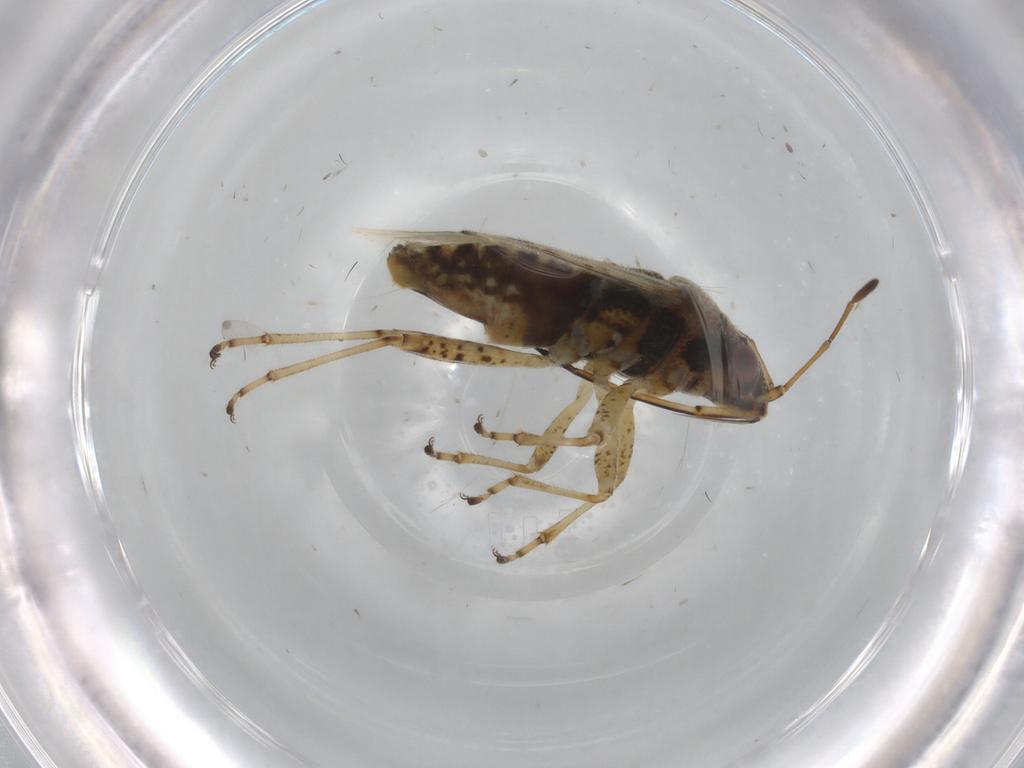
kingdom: Animalia
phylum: Arthropoda
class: Insecta
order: Hemiptera
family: Lygaeidae
